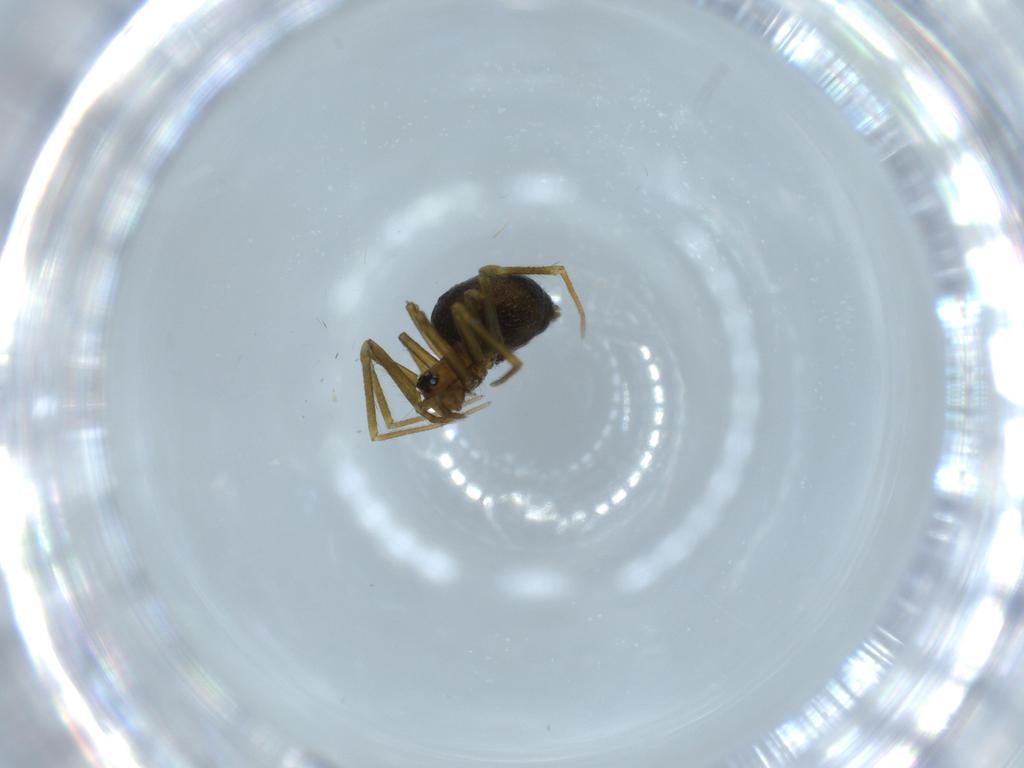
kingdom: Animalia
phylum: Arthropoda
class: Arachnida
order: Araneae
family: Linyphiidae
